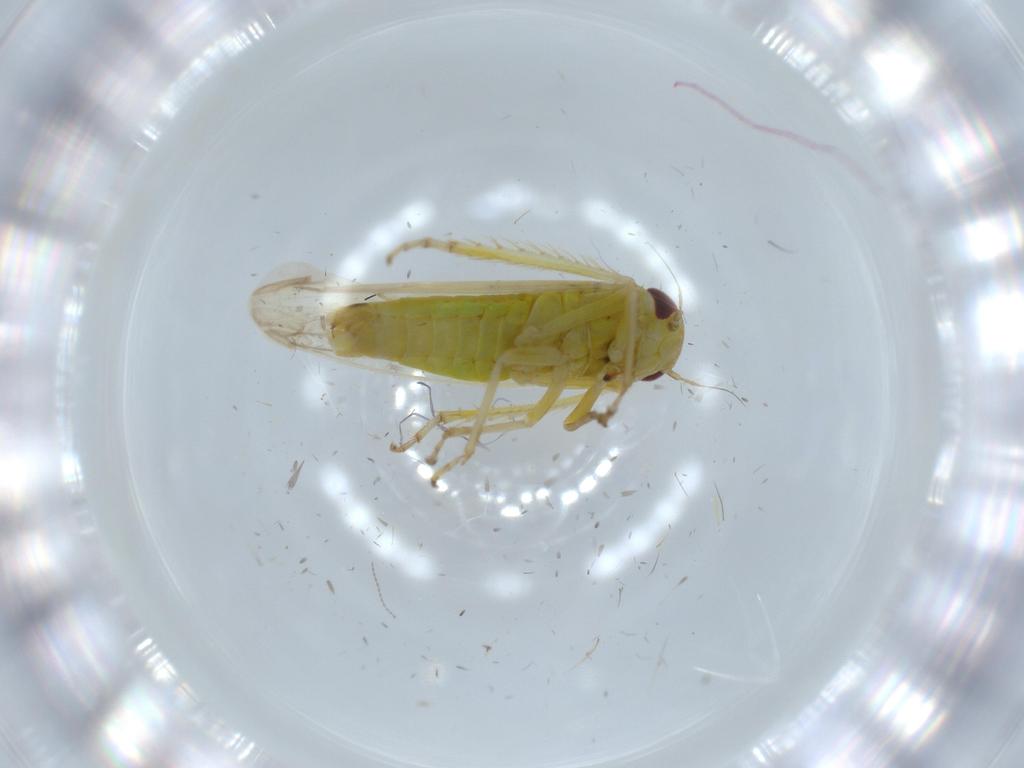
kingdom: Animalia
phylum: Arthropoda
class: Insecta
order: Hemiptera
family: Cicadellidae
